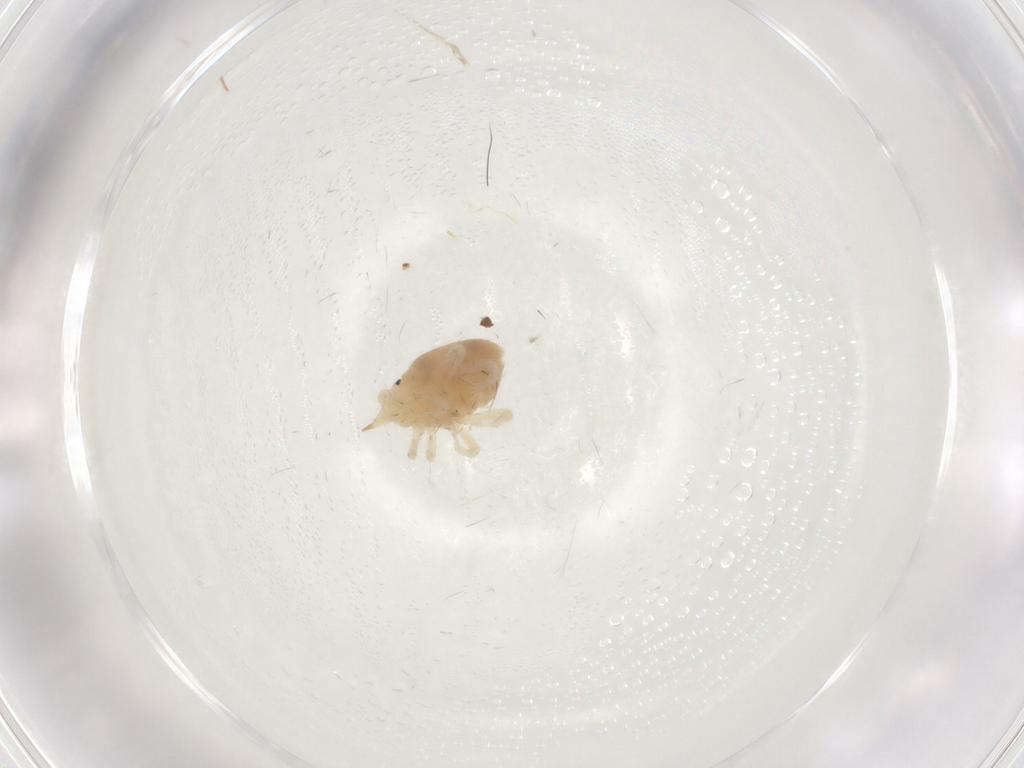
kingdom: Animalia
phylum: Arthropoda
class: Arachnida
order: Trombidiformes
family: Cunaxidae
